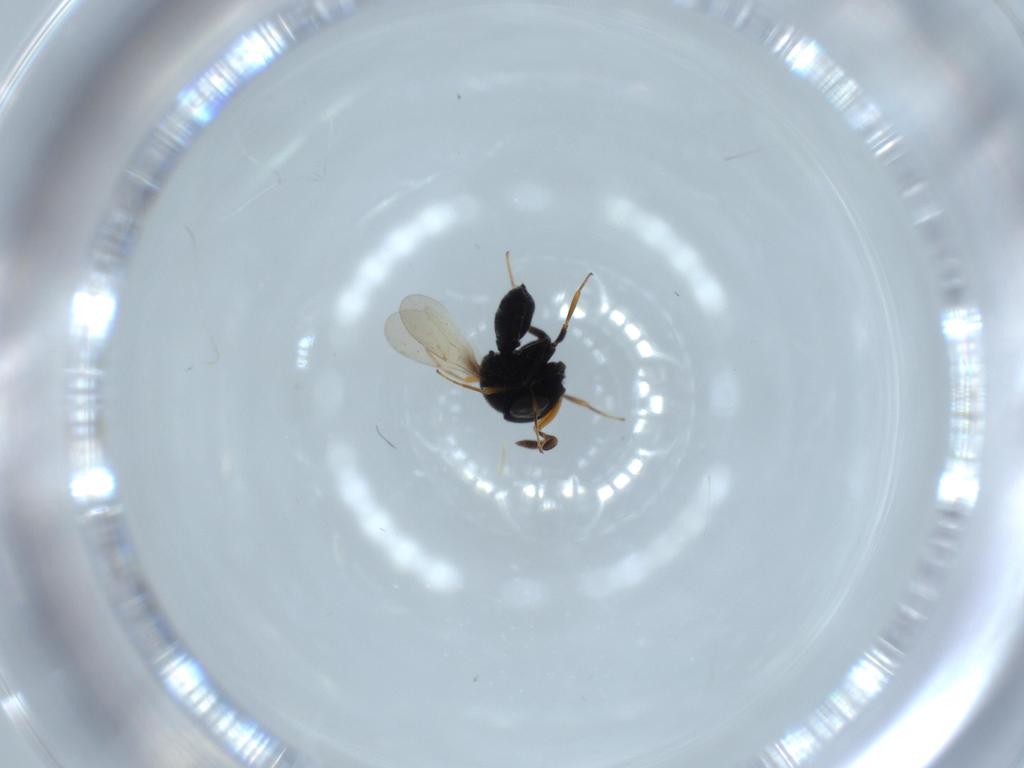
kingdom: Animalia
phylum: Arthropoda
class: Insecta
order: Hymenoptera
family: Scelionidae
